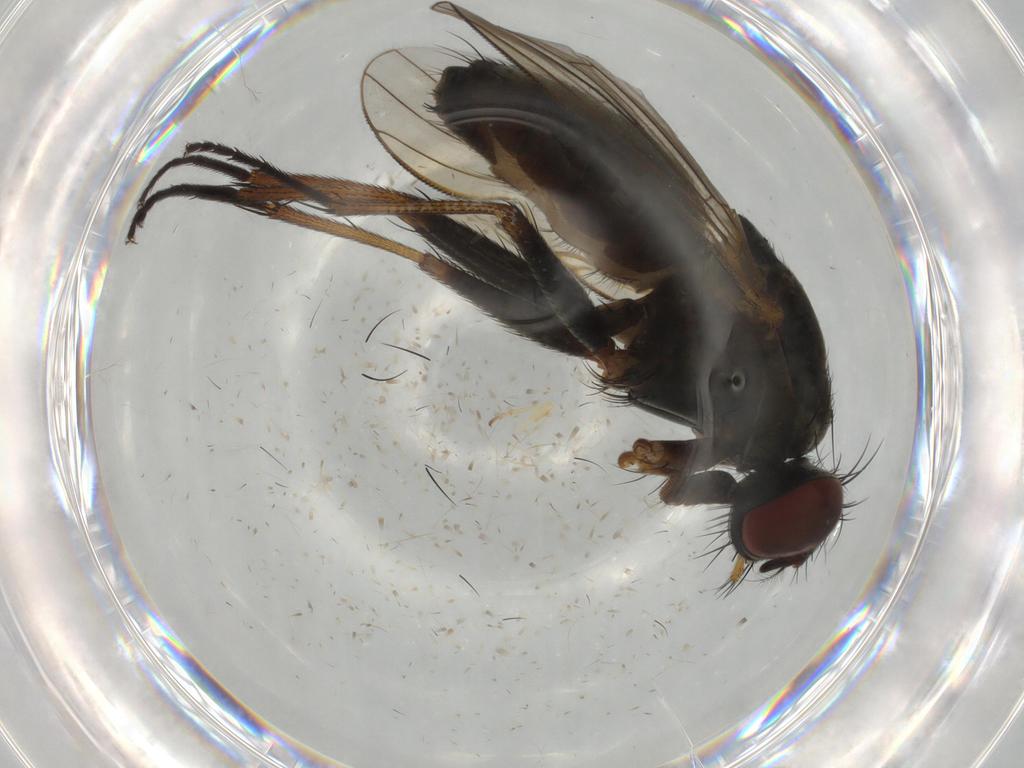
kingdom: Animalia
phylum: Arthropoda
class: Insecta
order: Diptera
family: Muscidae
